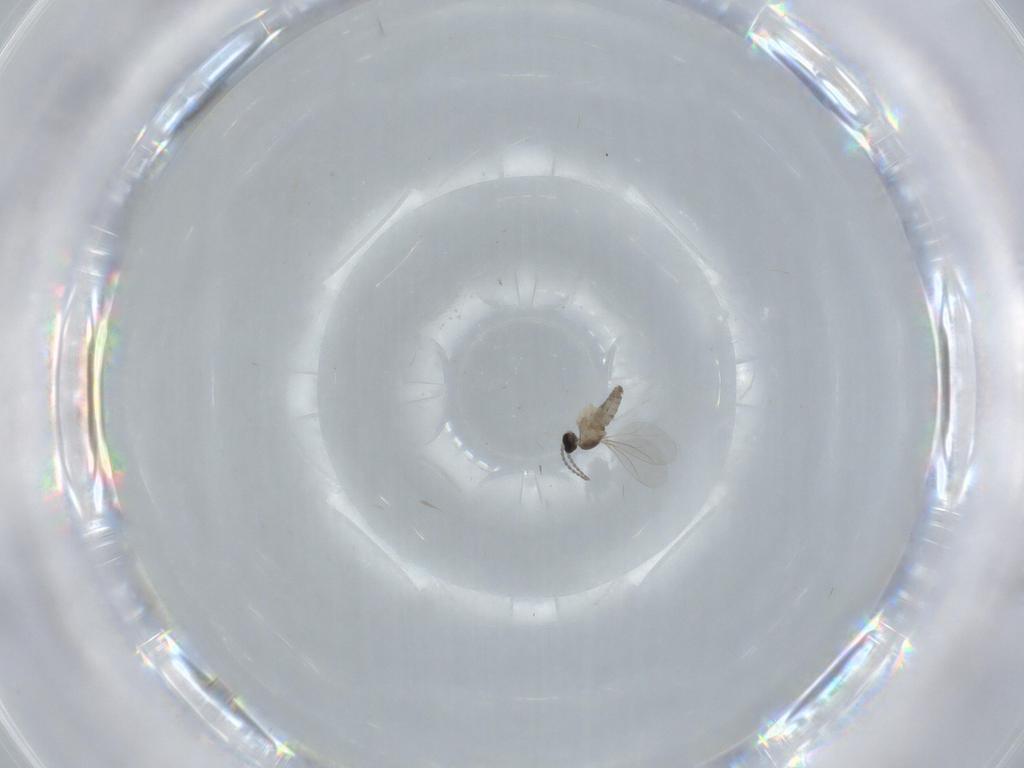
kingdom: Animalia
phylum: Arthropoda
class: Insecta
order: Diptera
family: Cecidomyiidae
